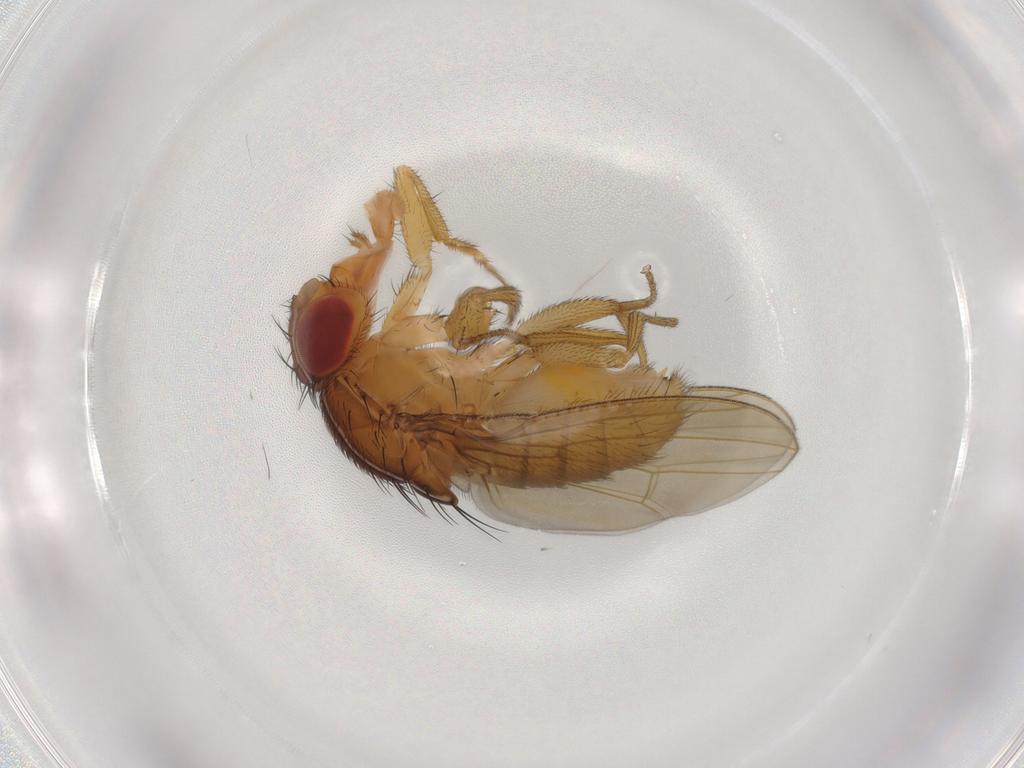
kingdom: Animalia
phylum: Arthropoda
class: Insecta
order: Diptera
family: Drosophilidae
